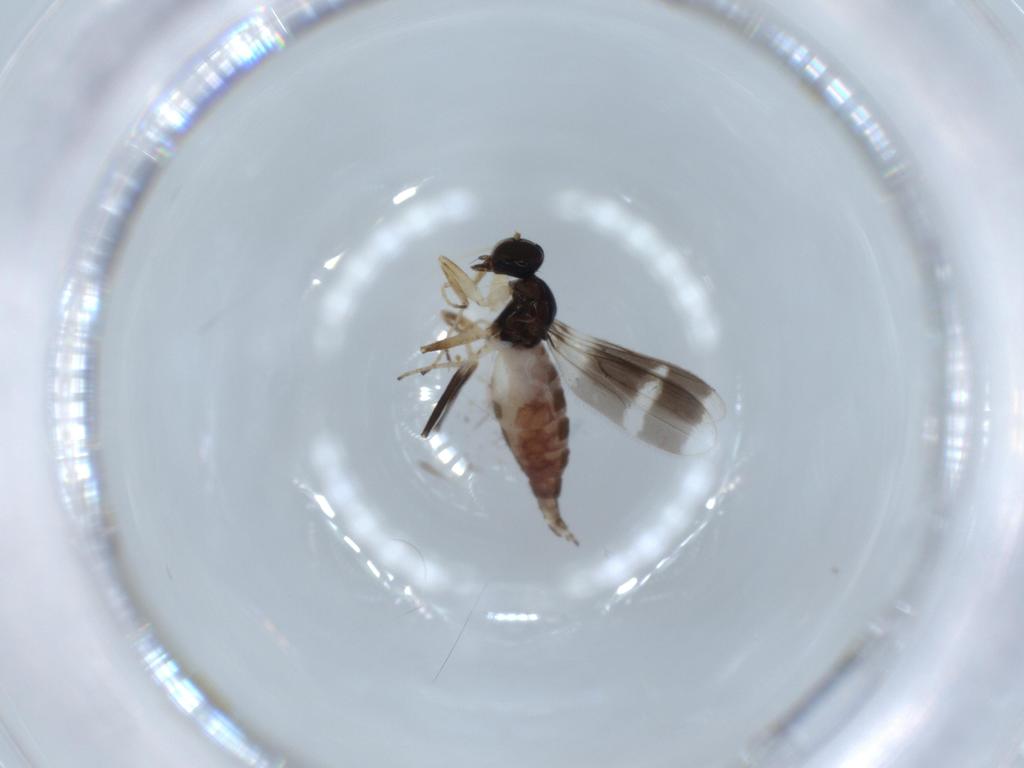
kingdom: Animalia
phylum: Arthropoda
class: Insecta
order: Diptera
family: Drosophilidae
